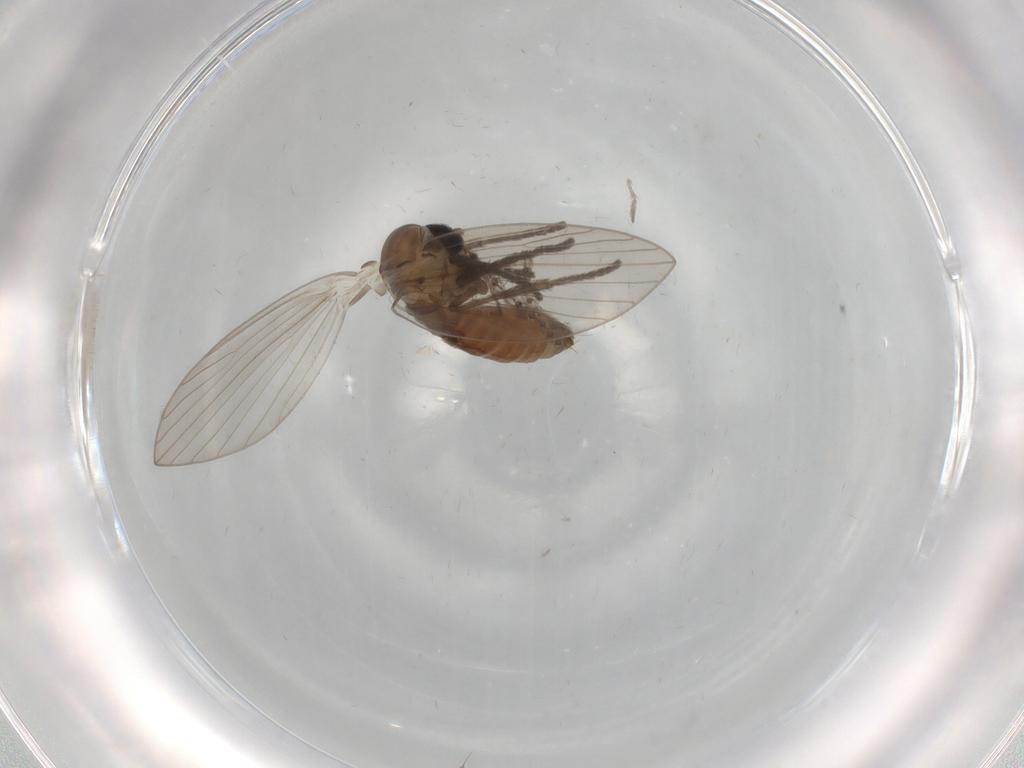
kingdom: Animalia
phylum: Arthropoda
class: Insecta
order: Diptera
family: Psychodidae
